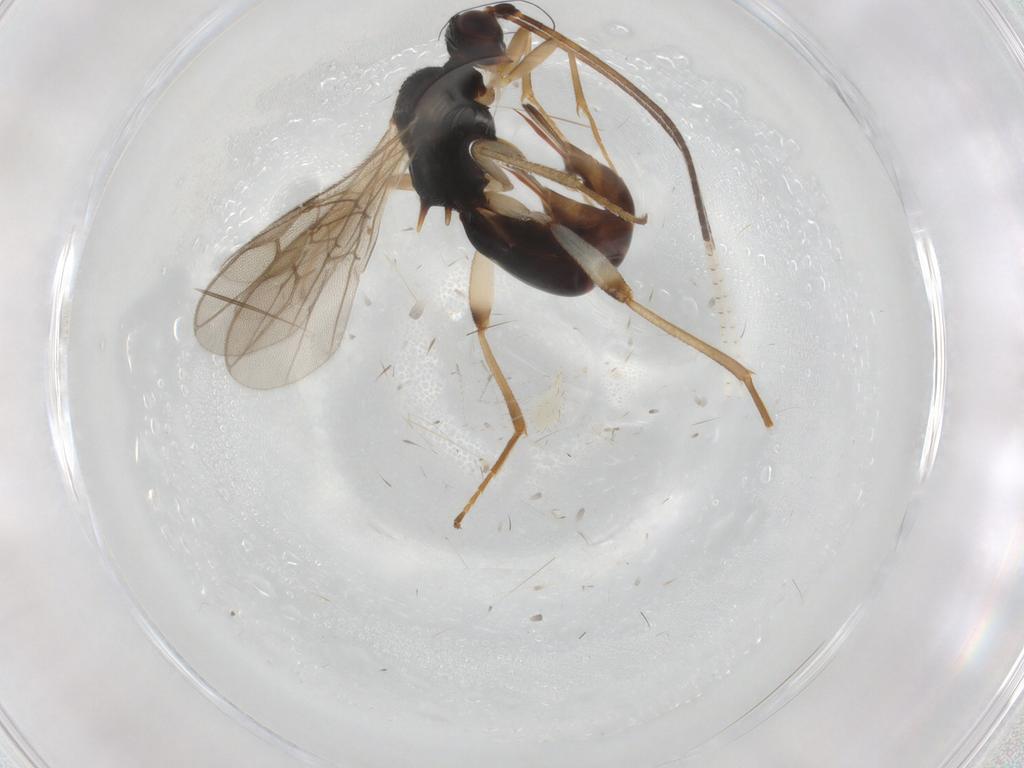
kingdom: Animalia
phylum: Arthropoda
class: Insecta
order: Hymenoptera
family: Braconidae
